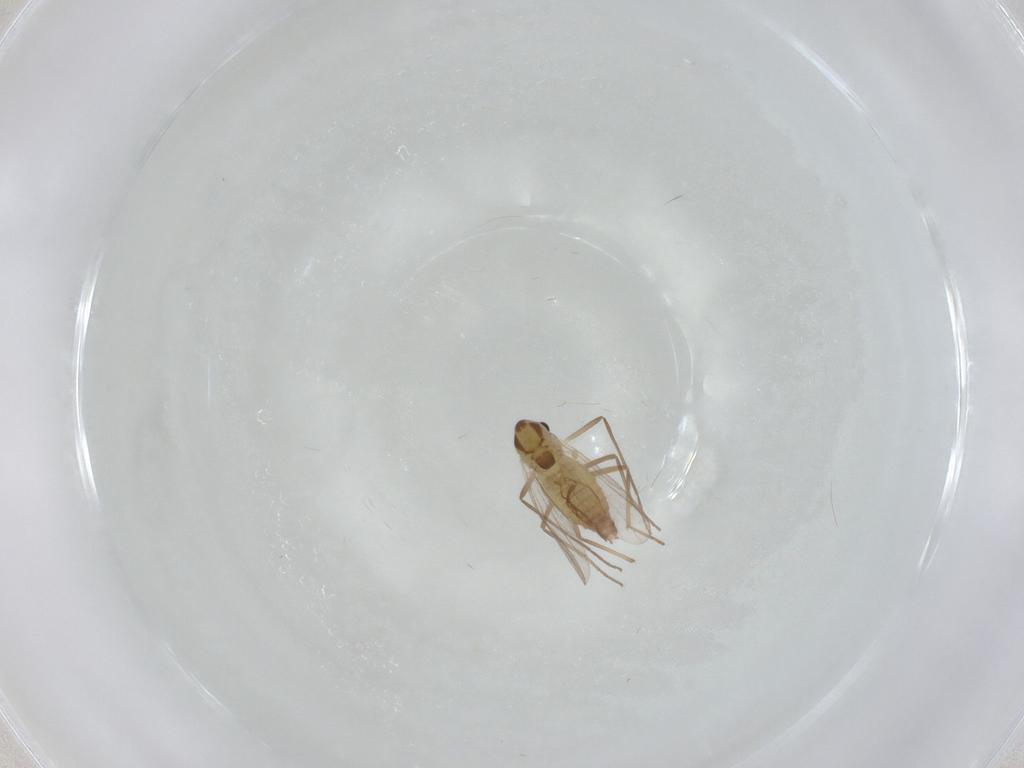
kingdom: Animalia
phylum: Arthropoda
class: Insecta
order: Diptera
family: Chironomidae
